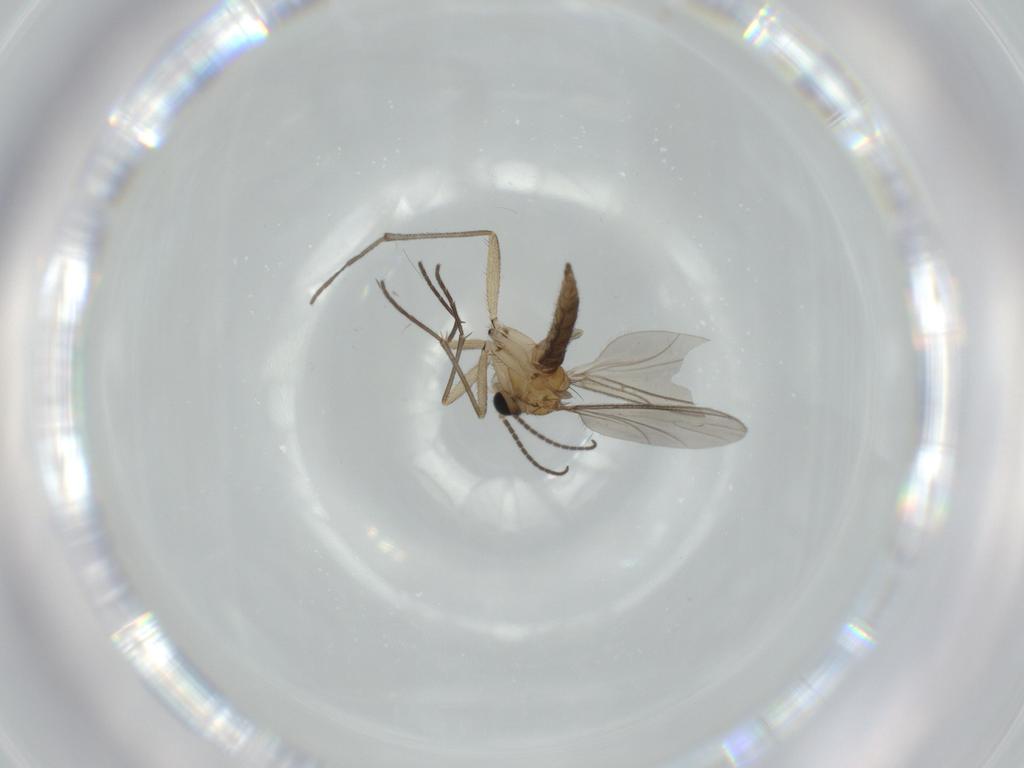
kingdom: Animalia
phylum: Arthropoda
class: Insecta
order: Diptera
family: Sciaridae
